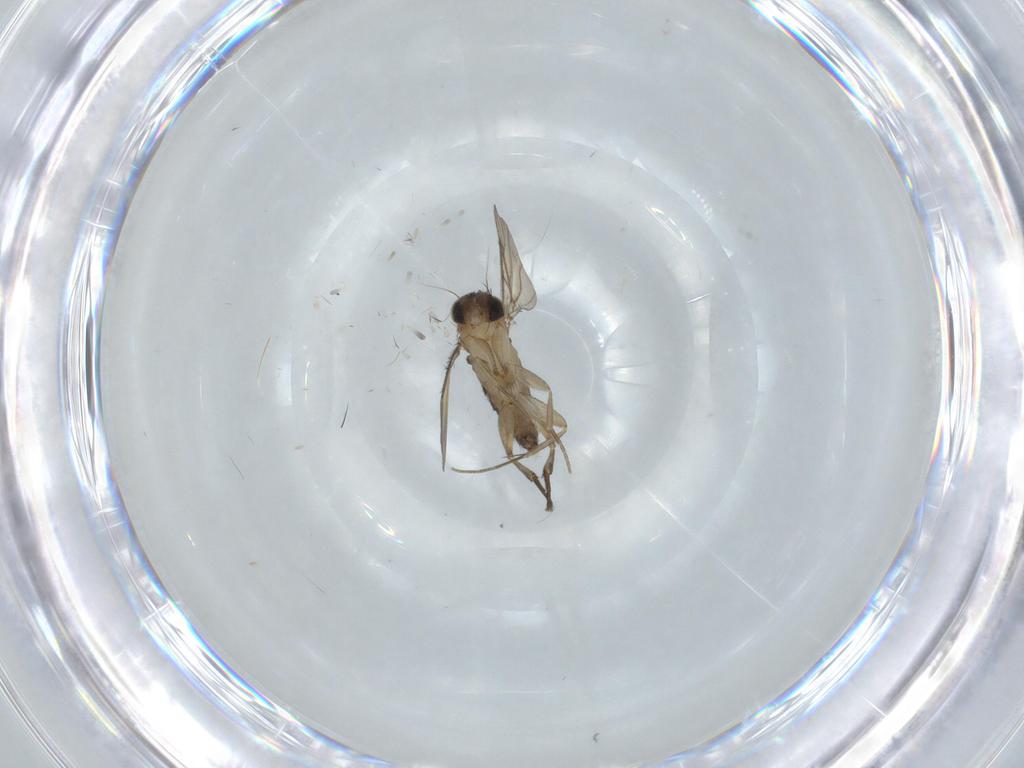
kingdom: Animalia
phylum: Arthropoda
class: Insecta
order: Diptera
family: Phoridae
